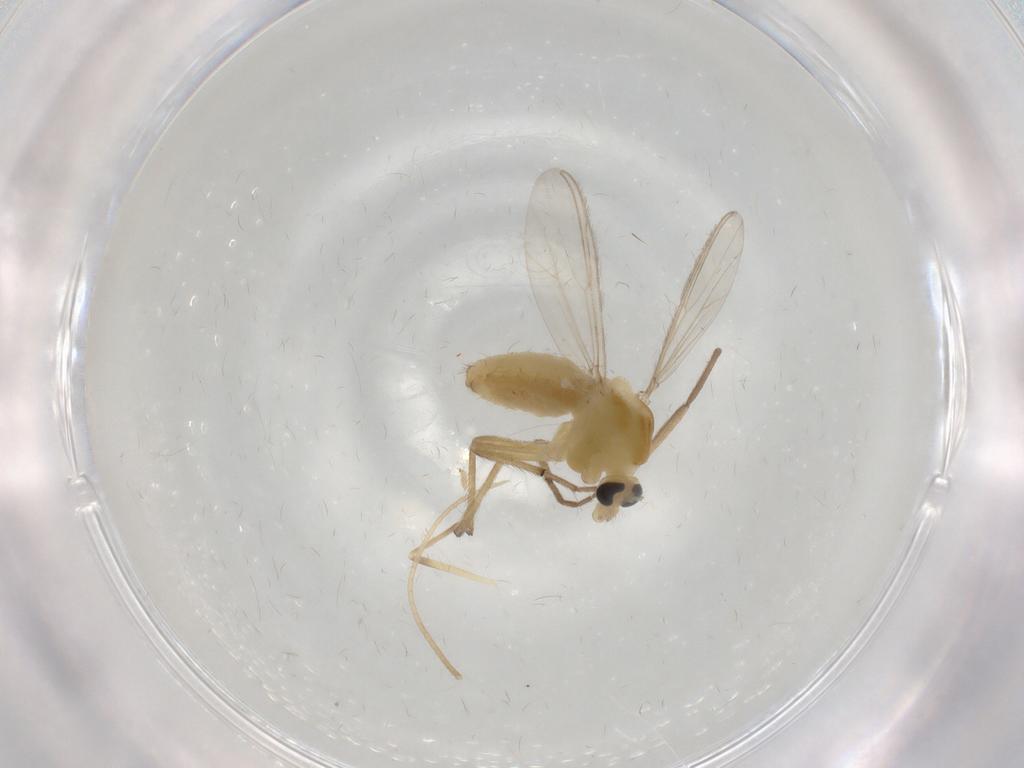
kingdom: Animalia
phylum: Arthropoda
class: Insecta
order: Diptera
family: Chironomidae
